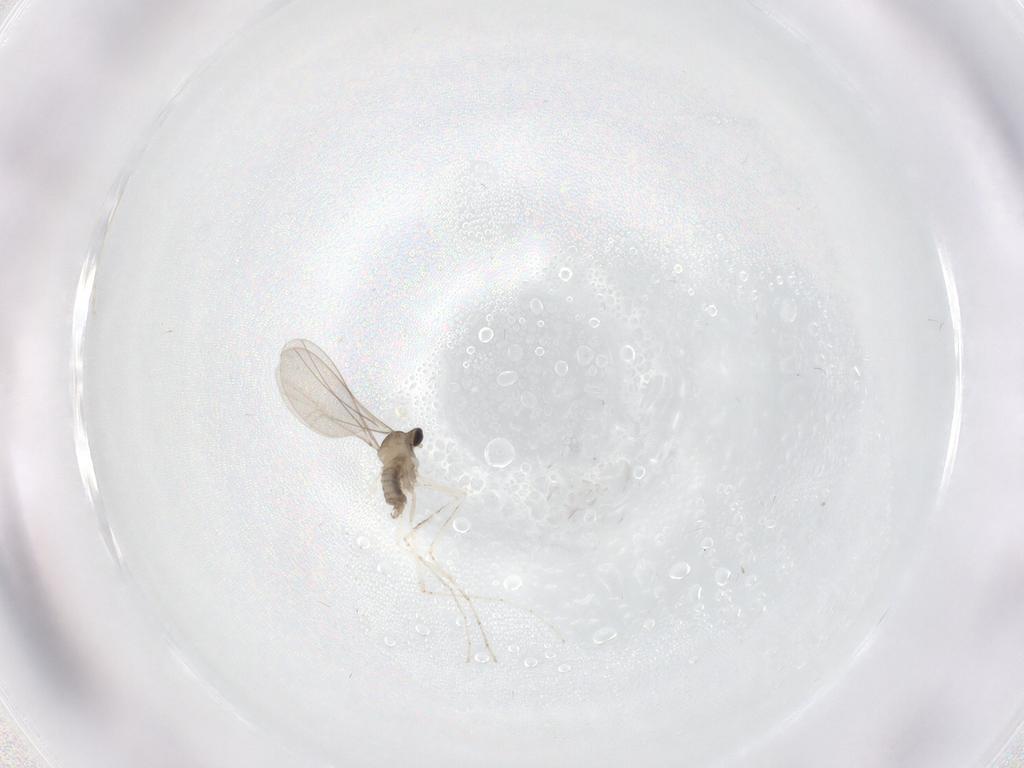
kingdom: Animalia
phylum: Arthropoda
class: Insecta
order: Diptera
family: Cecidomyiidae
